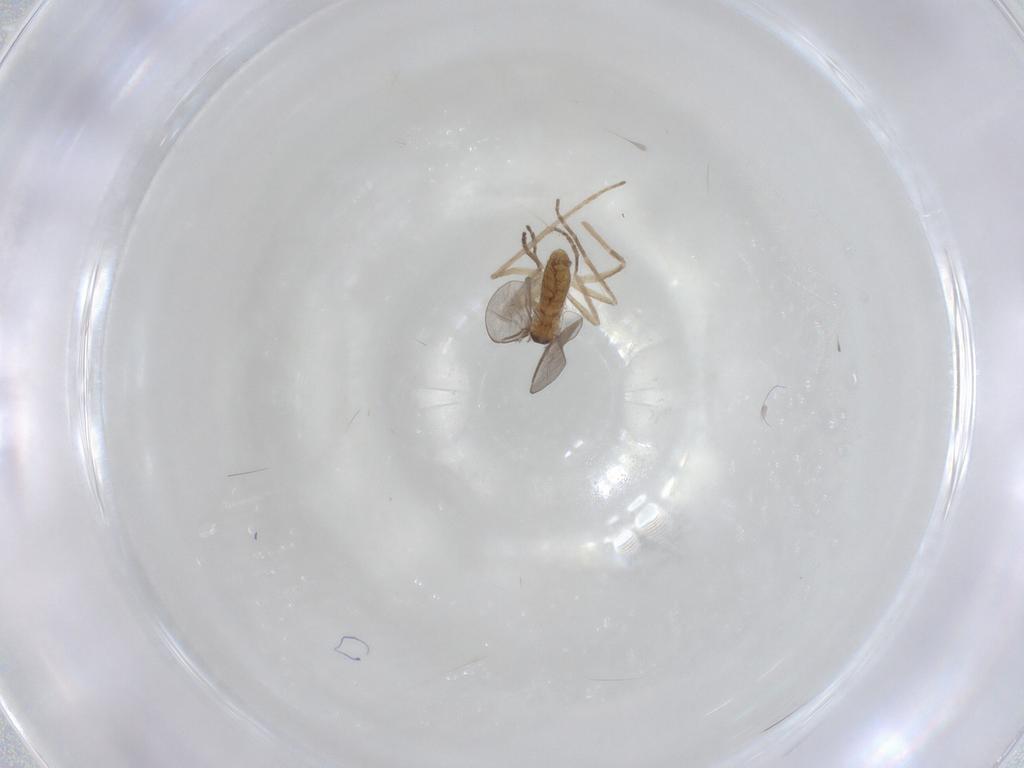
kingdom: Animalia
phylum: Arthropoda
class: Insecta
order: Diptera
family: Cecidomyiidae
